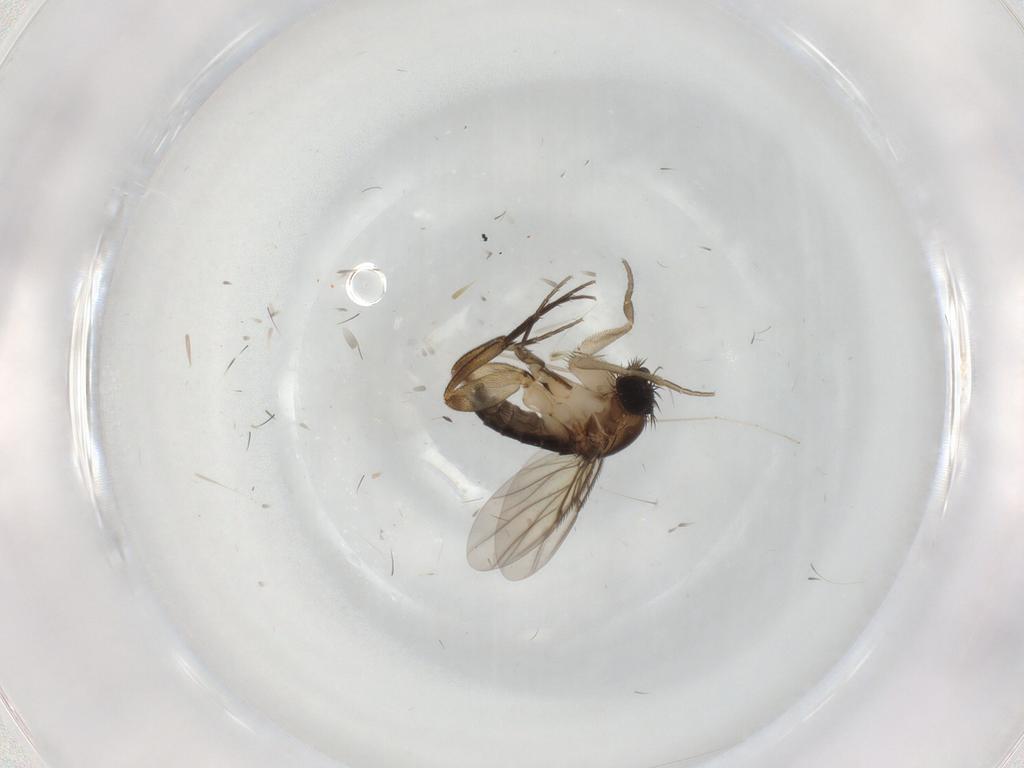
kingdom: Animalia
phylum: Arthropoda
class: Insecta
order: Diptera
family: Phoridae
